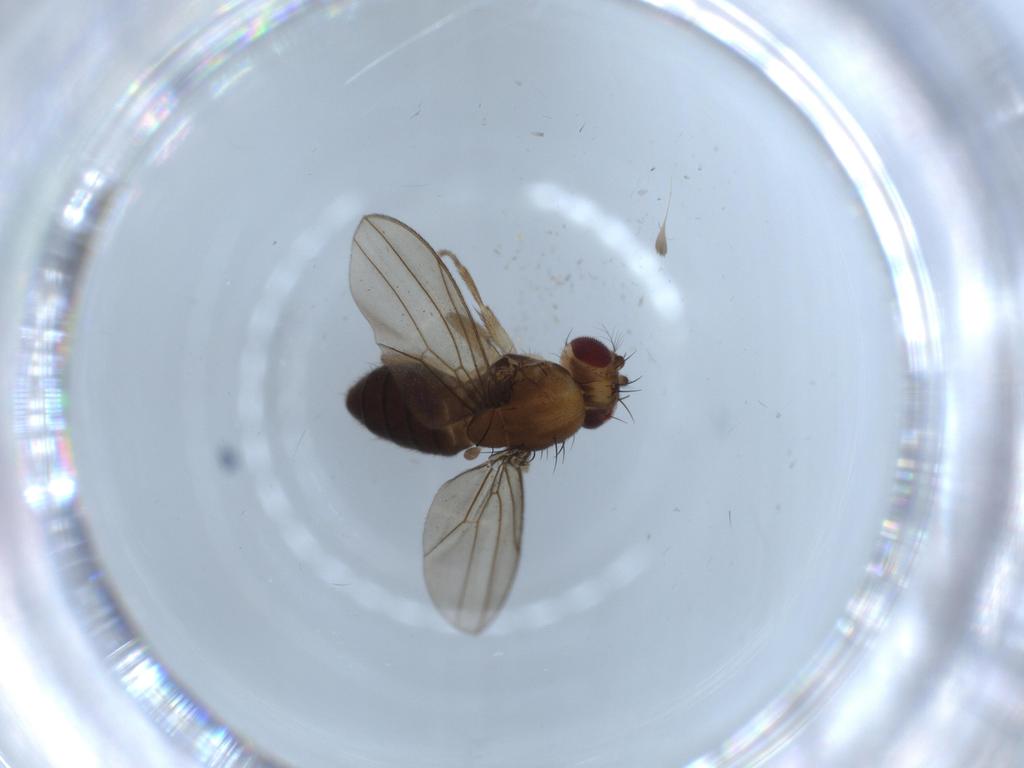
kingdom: Animalia
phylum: Arthropoda
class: Insecta
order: Diptera
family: Drosophilidae
